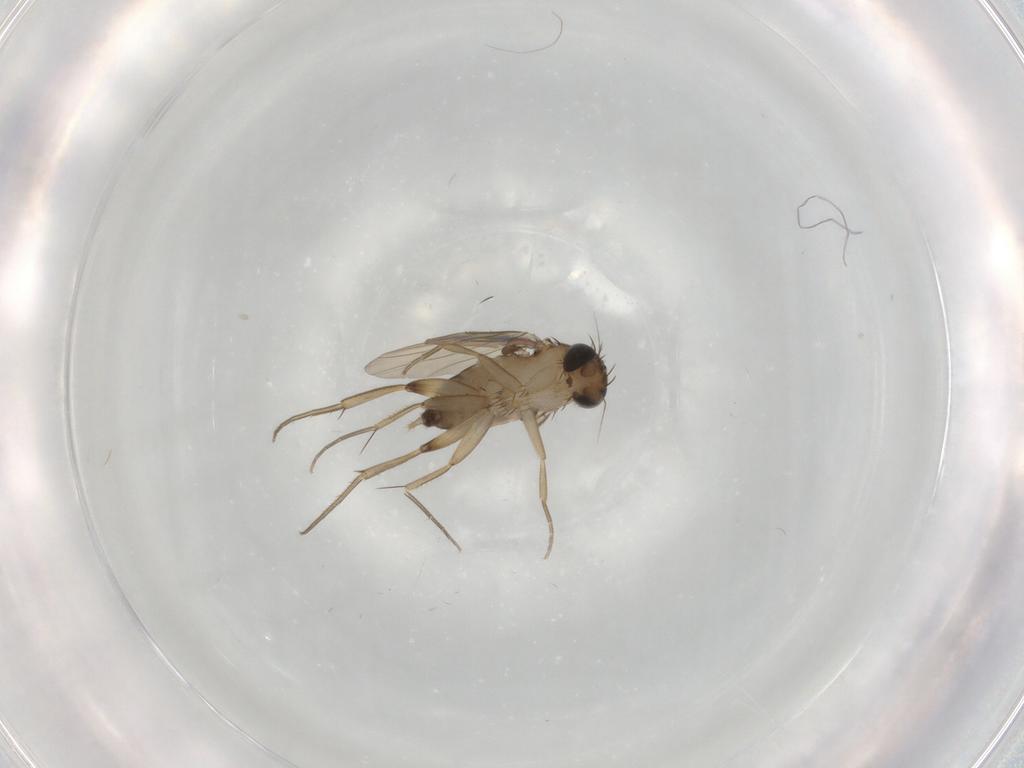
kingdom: Animalia
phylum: Arthropoda
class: Insecta
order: Diptera
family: Phoridae
